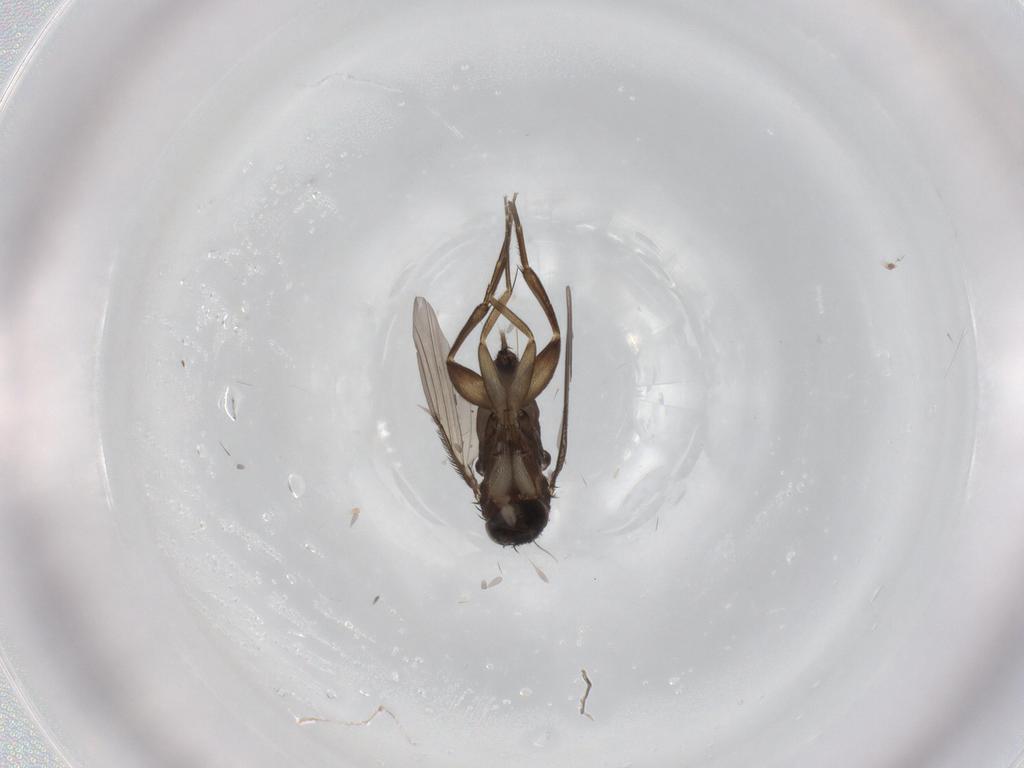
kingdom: Animalia
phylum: Arthropoda
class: Insecta
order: Diptera
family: Phoridae
